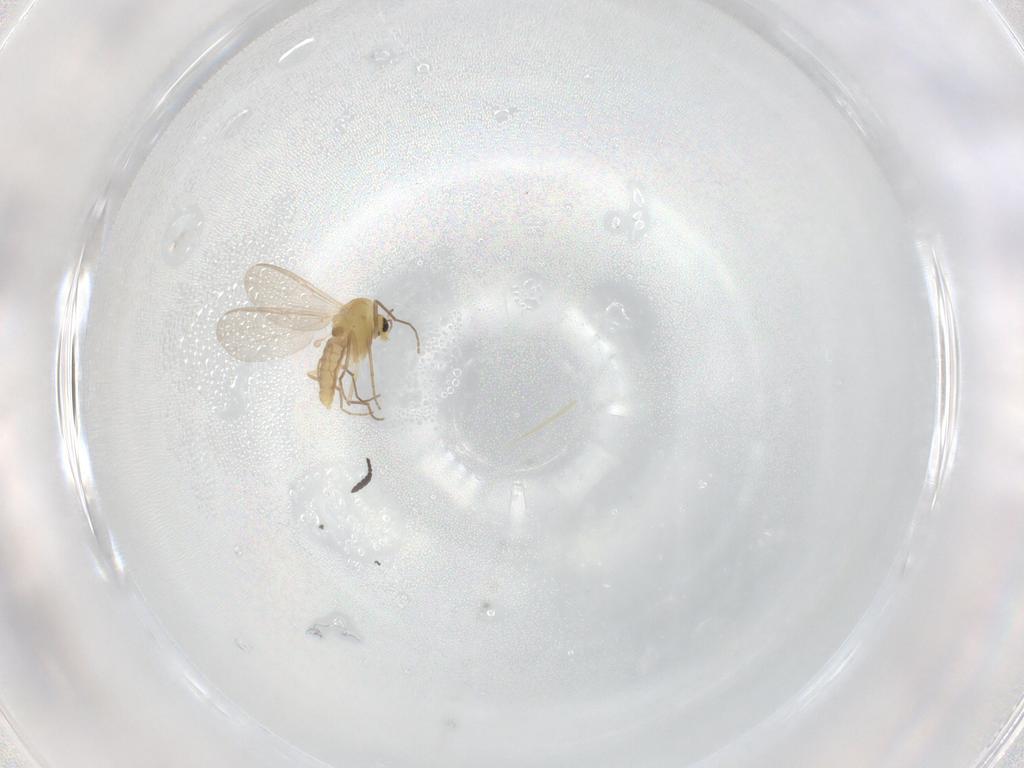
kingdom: Animalia
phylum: Arthropoda
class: Insecta
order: Diptera
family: Chironomidae
